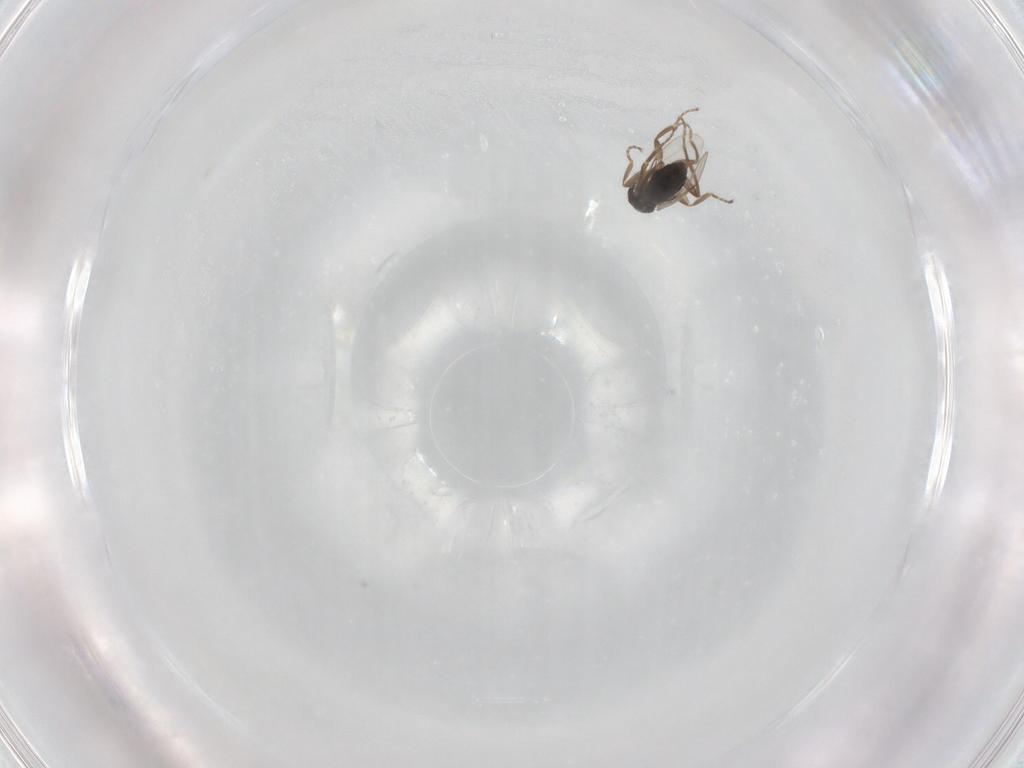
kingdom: Animalia
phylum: Arthropoda
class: Insecta
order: Diptera
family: Phoridae
